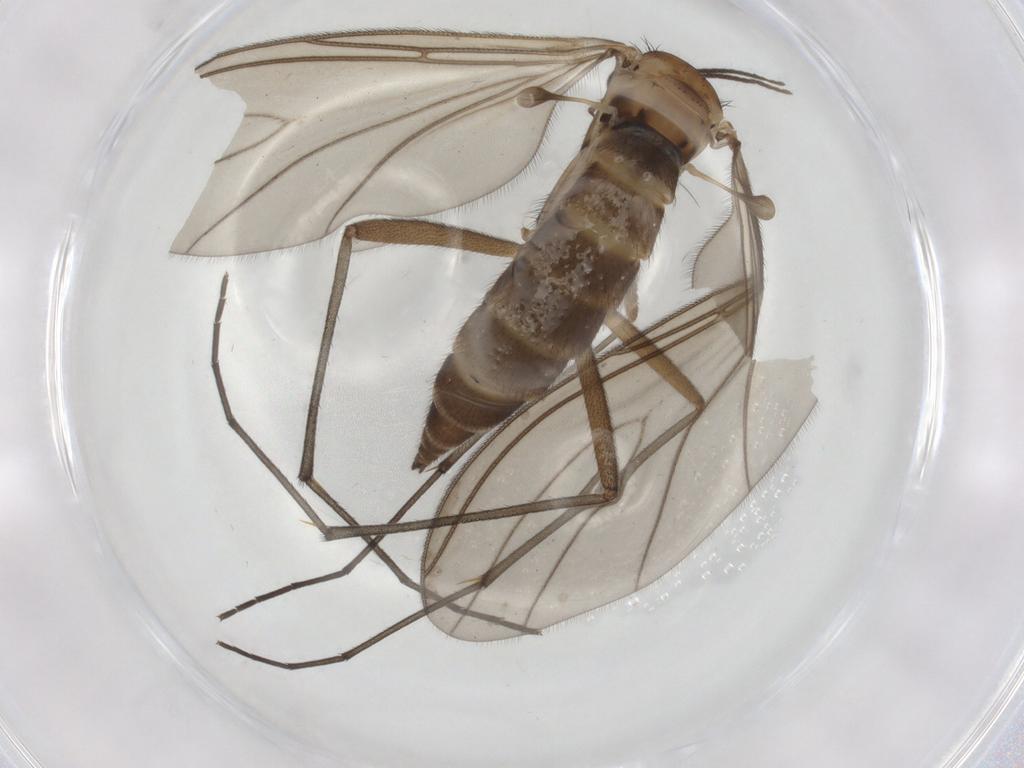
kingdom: Animalia
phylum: Arthropoda
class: Insecta
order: Diptera
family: Sciaridae
